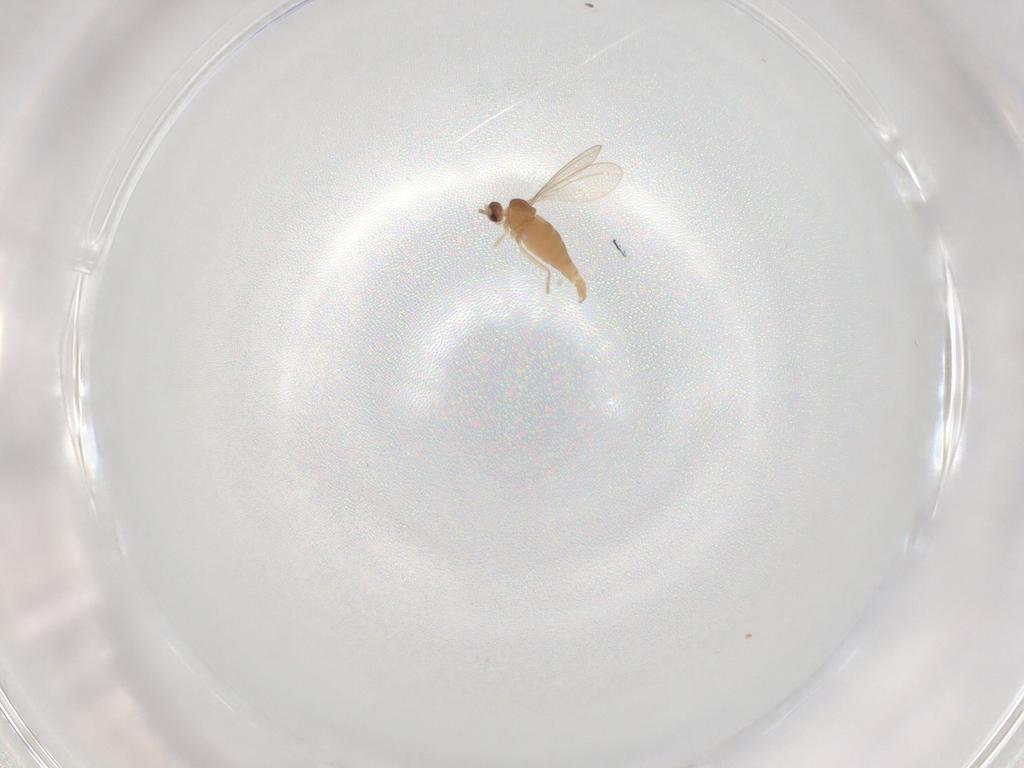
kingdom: Animalia
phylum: Arthropoda
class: Insecta
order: Diptera
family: Cecidomyiidae
